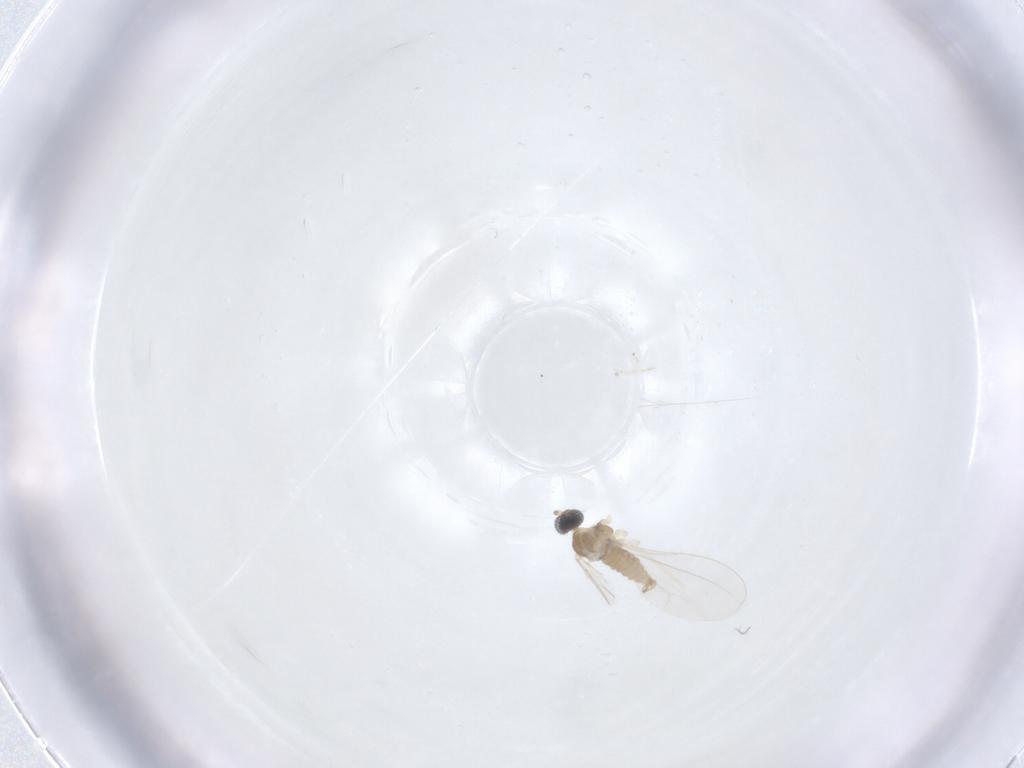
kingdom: Animalia
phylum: Arthropoda
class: Insecta
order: Diptera
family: Cecidomyiidae
